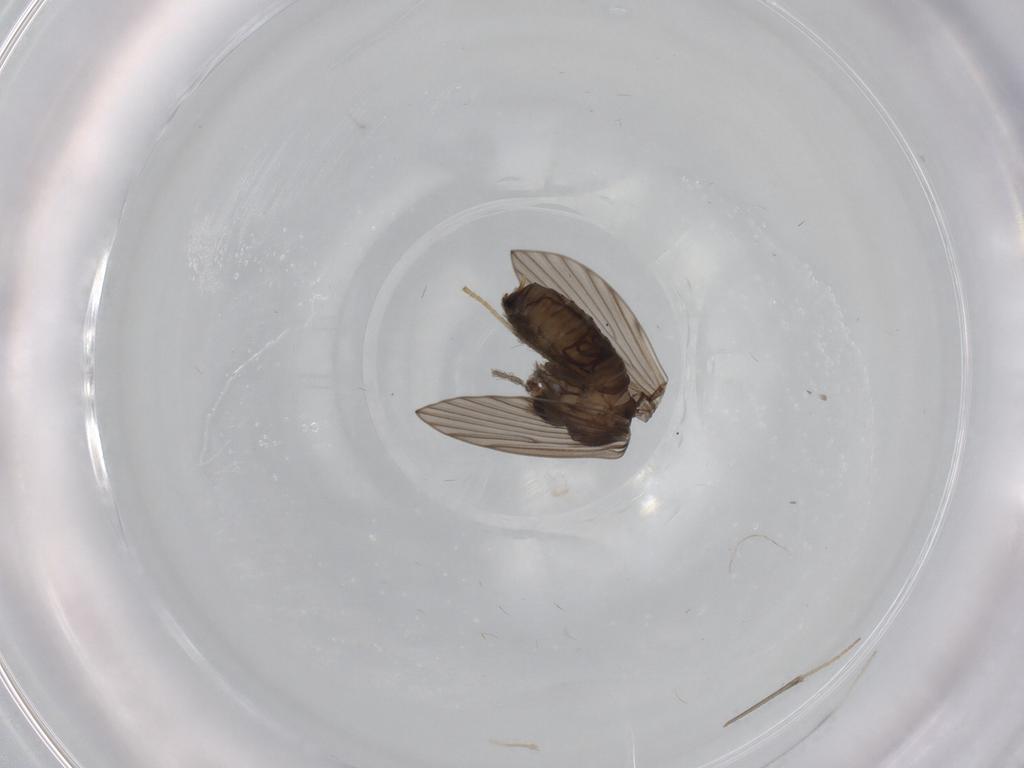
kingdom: Animalia
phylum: Arthropoda
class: Insecta
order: Diptera
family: Psychodidae
